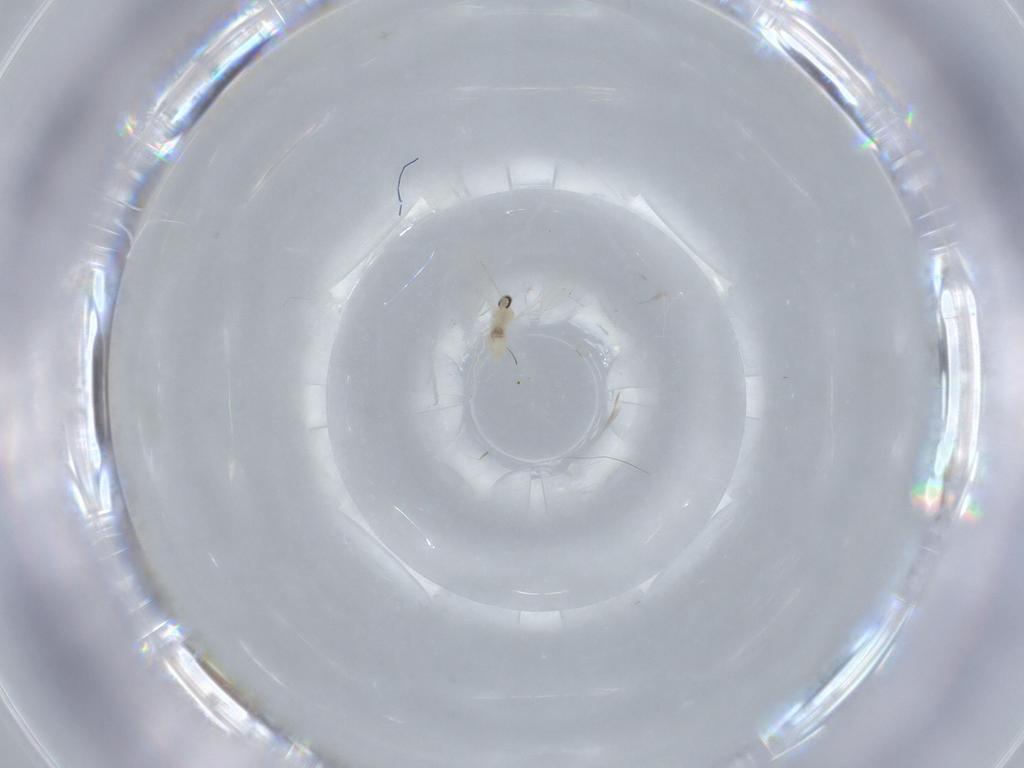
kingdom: Animalia
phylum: Arthropoda
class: Insecta
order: Diptera
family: Cecidomyiidae
